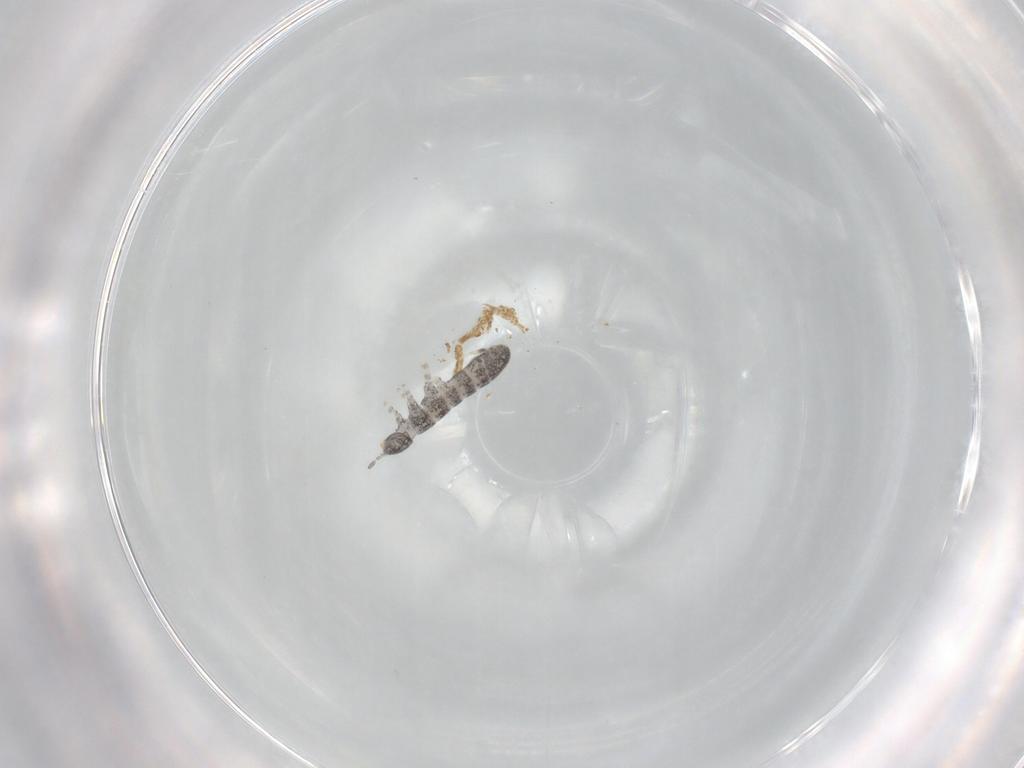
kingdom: Animalia
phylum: Arthropoda
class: Collembola
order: Entomobryomorpha
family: Isotomidae
